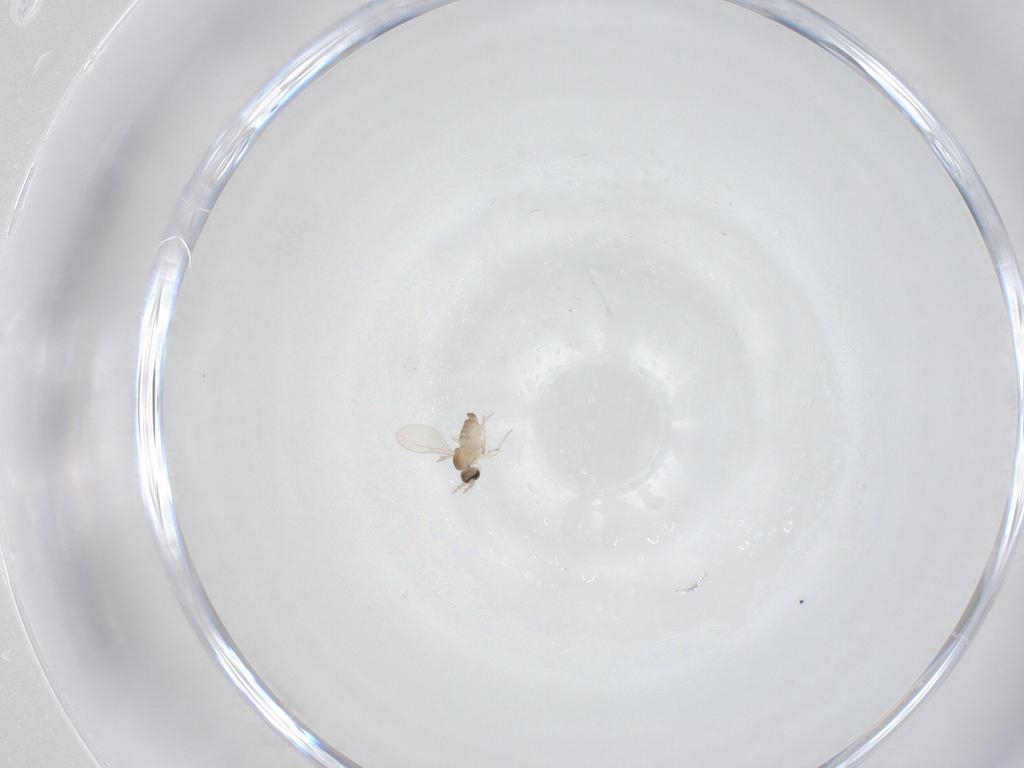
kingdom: Animalia
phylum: Arthropoda
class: Insecta
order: Diptera
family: Cecidomyiidae
